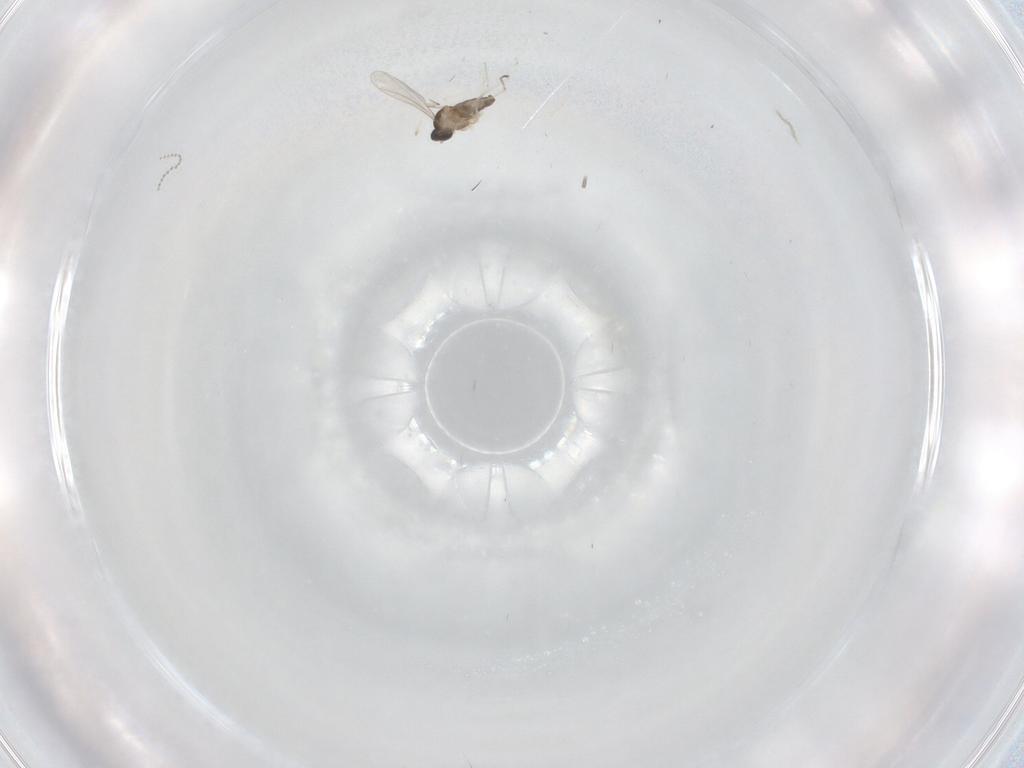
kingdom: Animalia
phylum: Arthropoda
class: Insecta
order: Diptera
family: Cecidomyiidae
